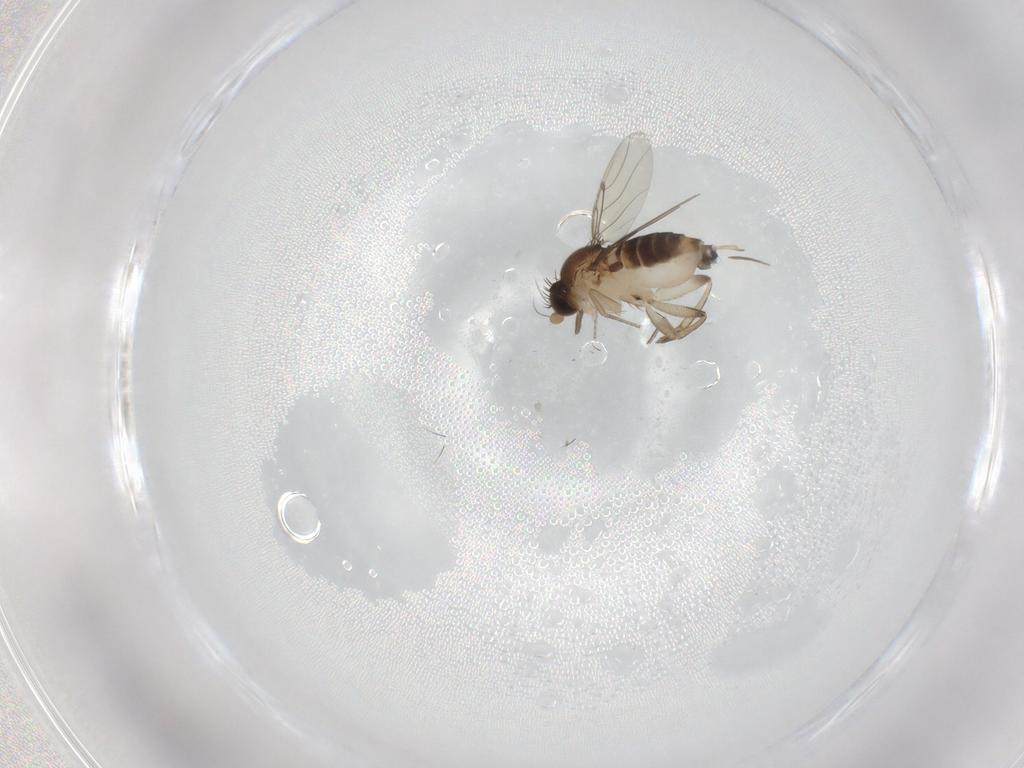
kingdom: Animalia
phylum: Arthropoda
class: Insecta
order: Diptera
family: Phoridae
